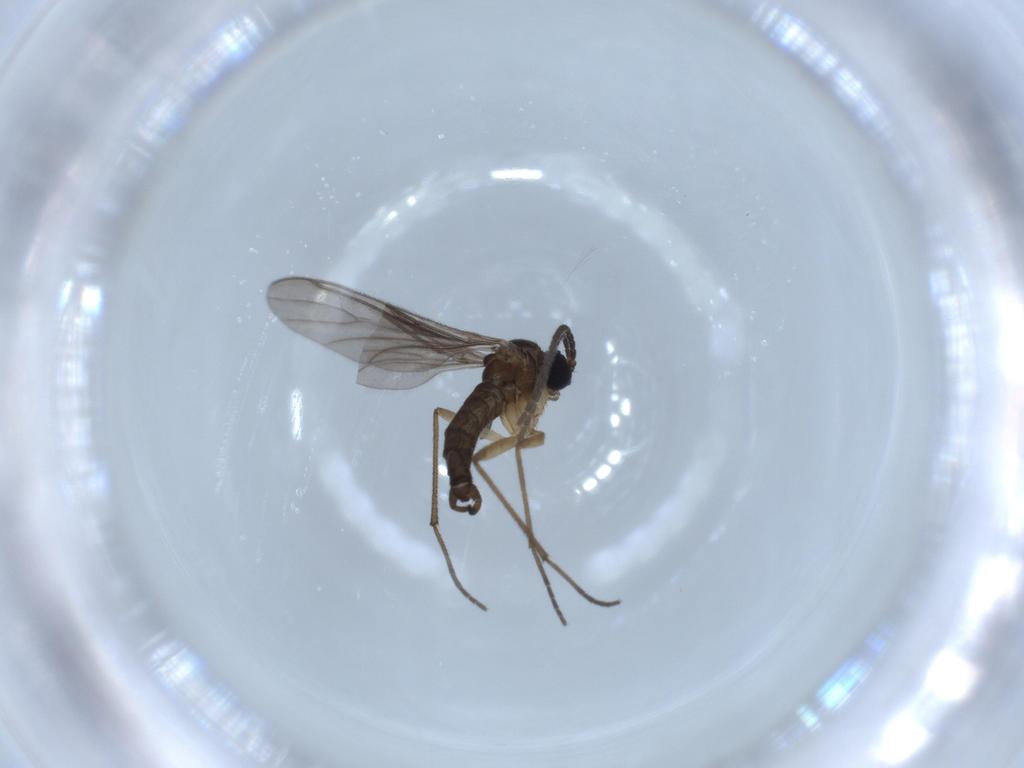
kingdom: Animalia
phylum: Arthropoda
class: Insecta
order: Diptera
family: Sciaridae
